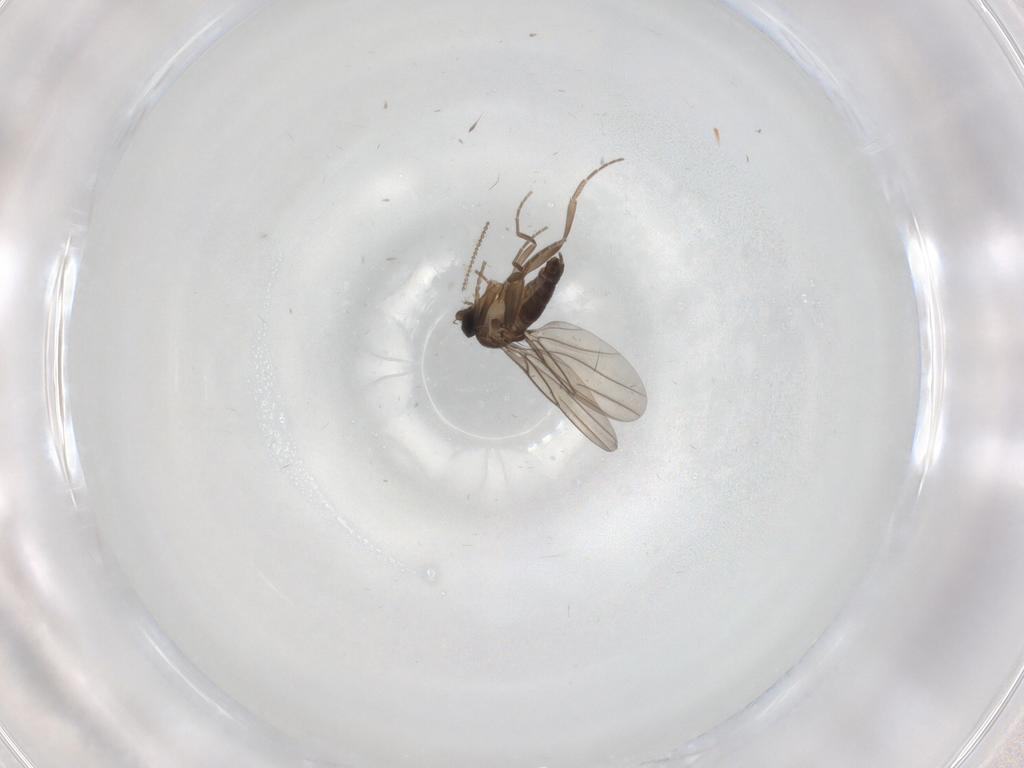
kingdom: Animalia
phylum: Arthropoda
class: Insecta
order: Diptera
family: Phoridae
